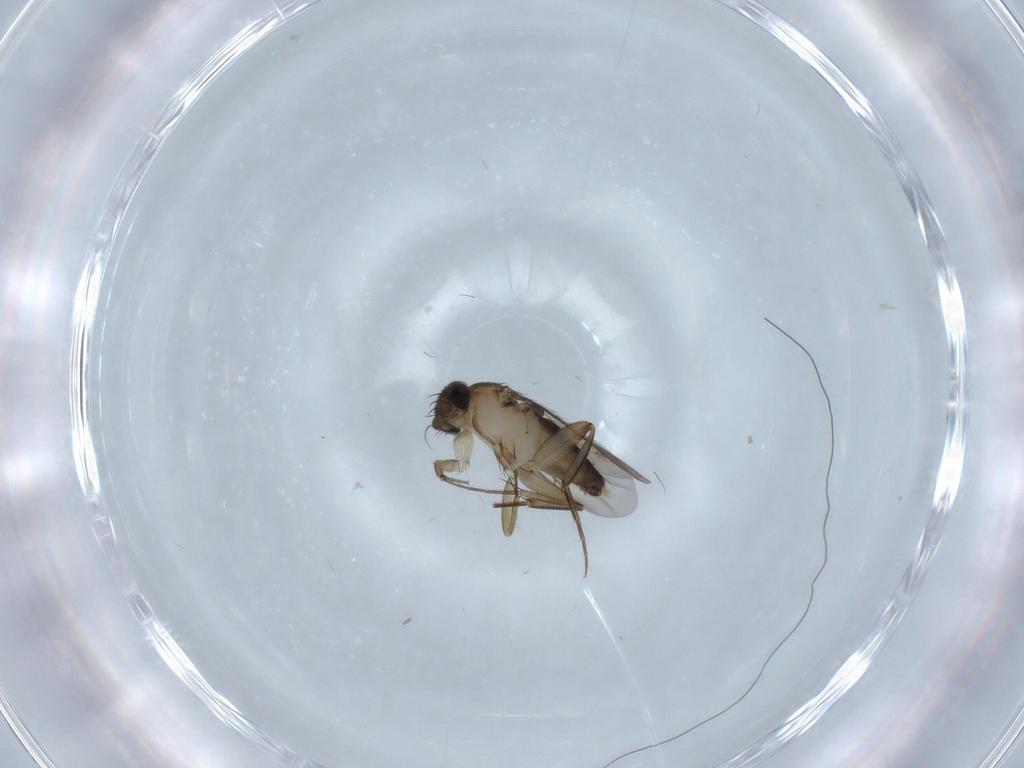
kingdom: Animalia
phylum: Arthropoda
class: Insecta
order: Diptera
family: Phoridae
